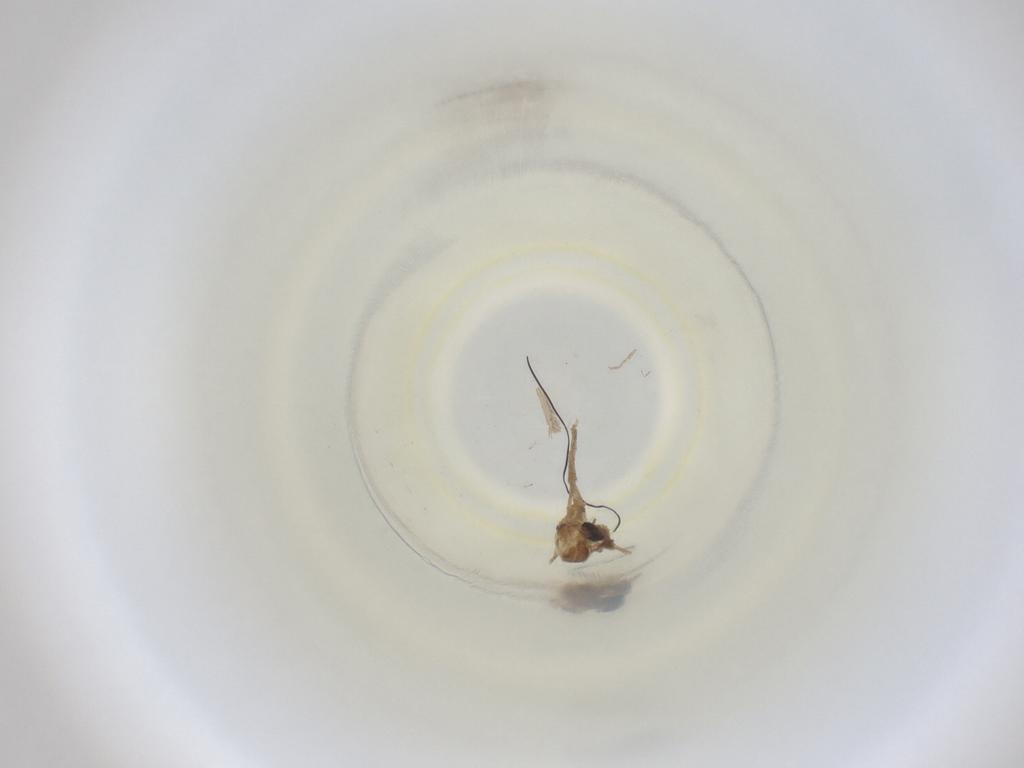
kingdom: Animalia
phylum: Arthropoda
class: Insecta
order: Diptera
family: Cecidomyiidae
